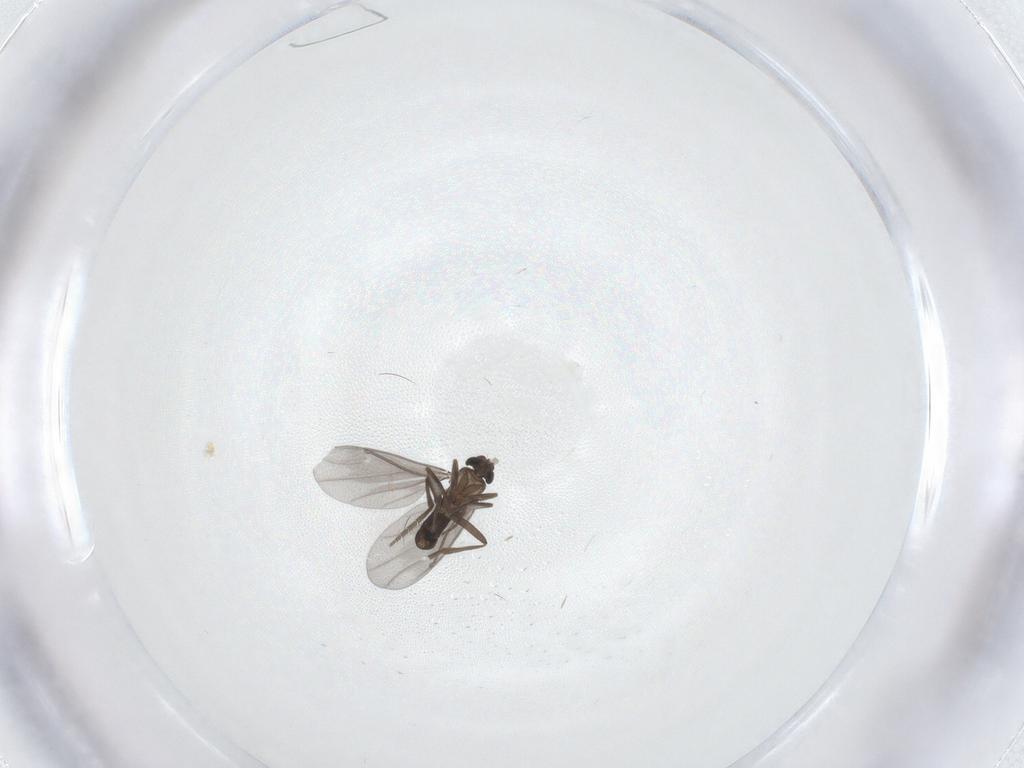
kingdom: Animalia
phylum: Arthropoda
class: Insecta
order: Diptera
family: Phoridae
